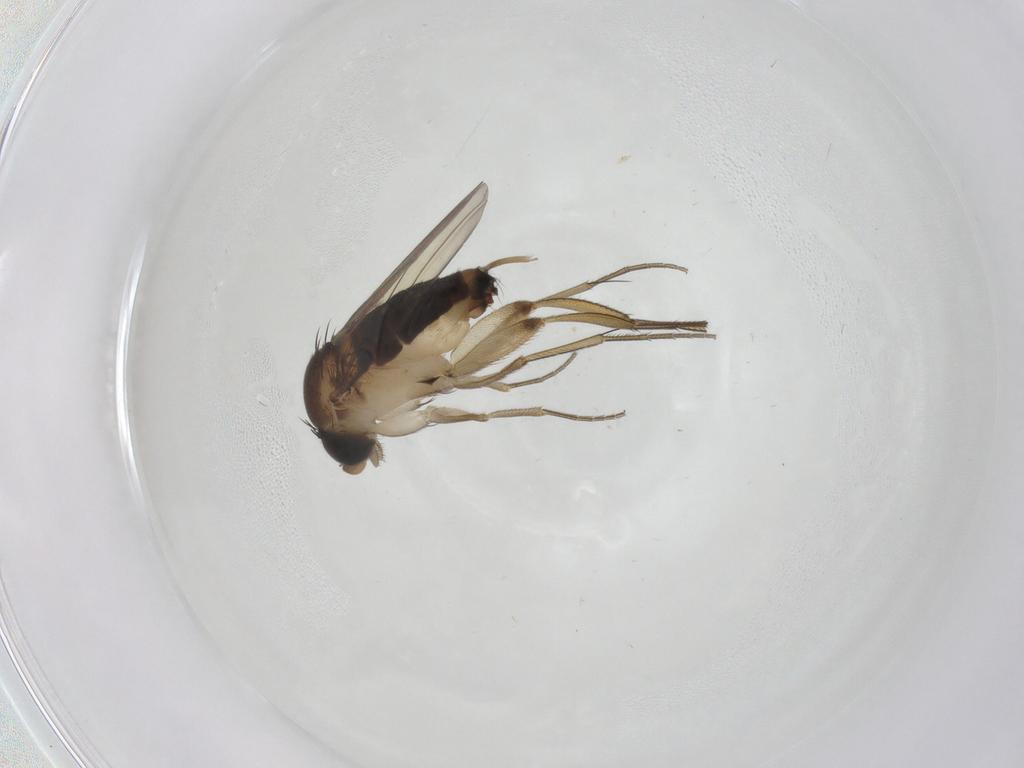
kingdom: Animalia
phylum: Arthropoda
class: Insecta
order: Diptera
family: Phoridae
